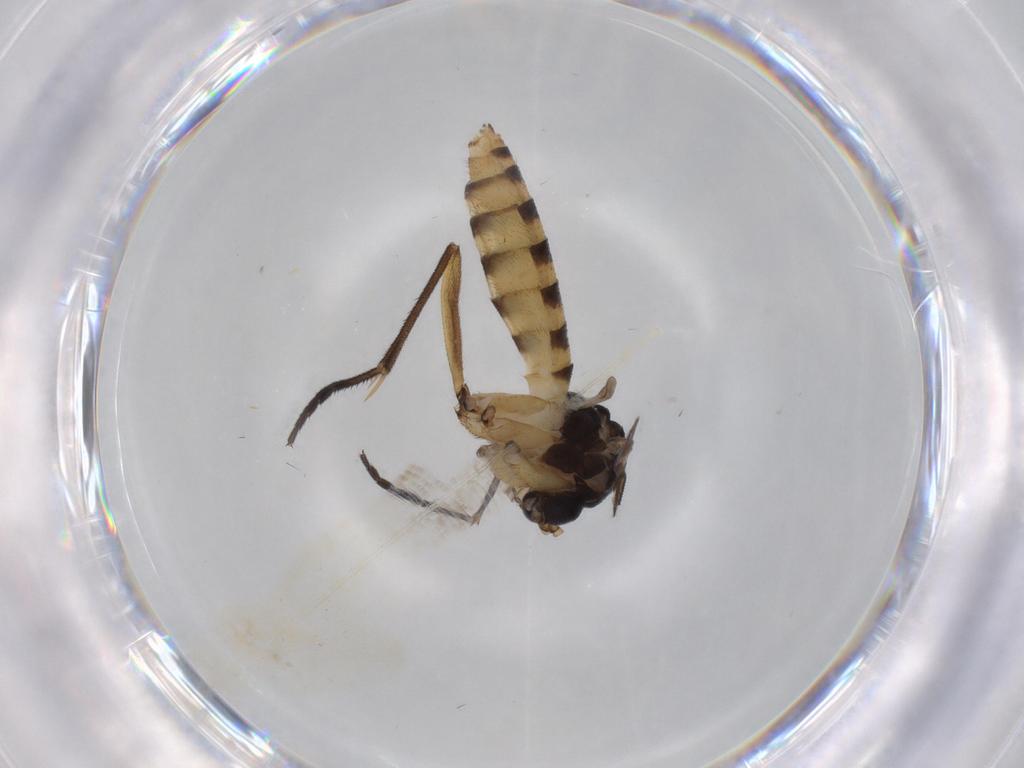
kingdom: Animalia
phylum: Arthropoda
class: Insecta
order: Diptera
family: Mycetophilidae
